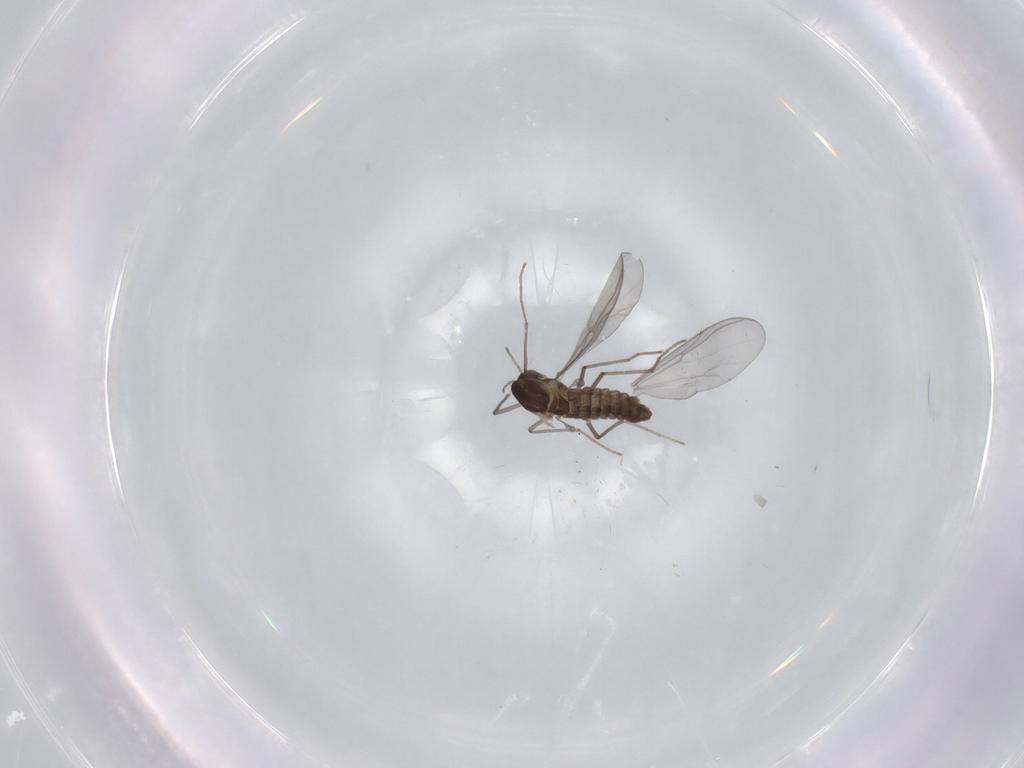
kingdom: Animalia
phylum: Arthropoda
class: Insecta
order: Diptera
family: Chironomidae
